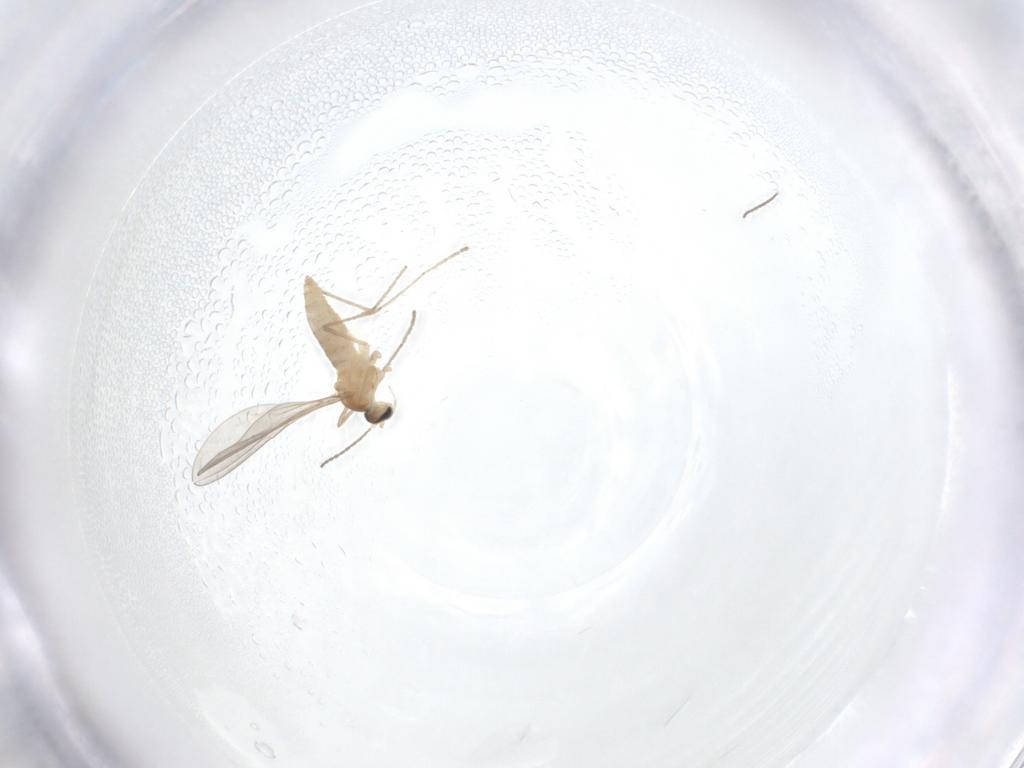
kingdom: Animalia
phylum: Arthropoda
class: Insecta
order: Diptera
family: Cecidomyiidae
